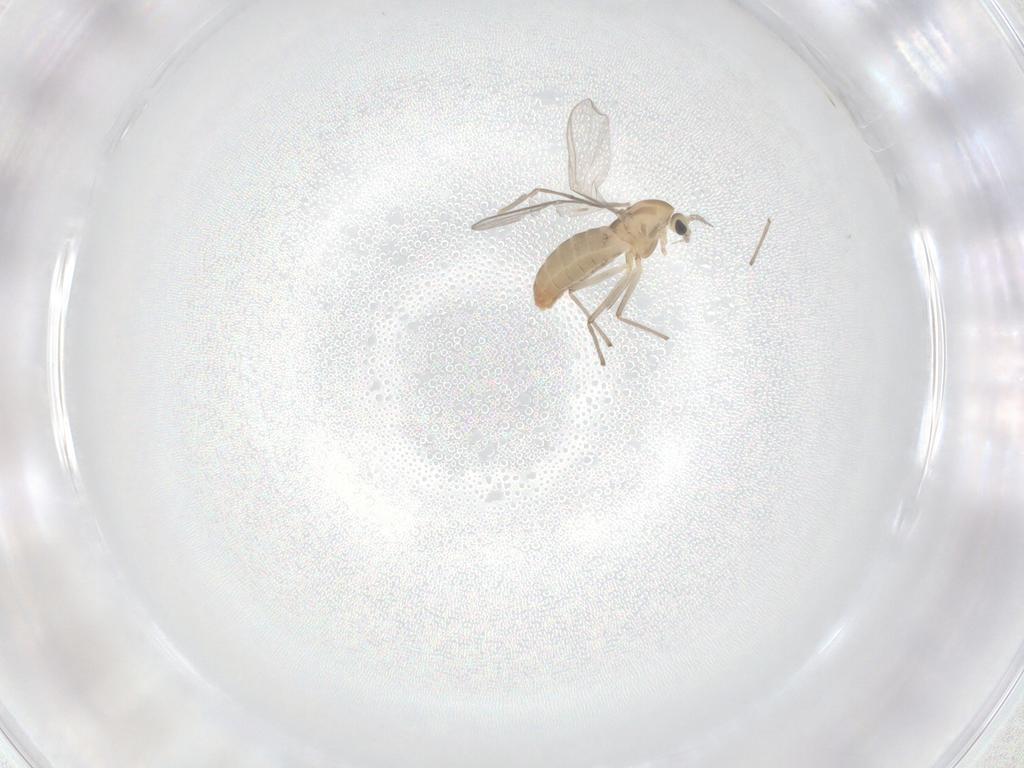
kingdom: Animalia
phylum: Arthropoda
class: Insecta
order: Diptera
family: Chironomidae
